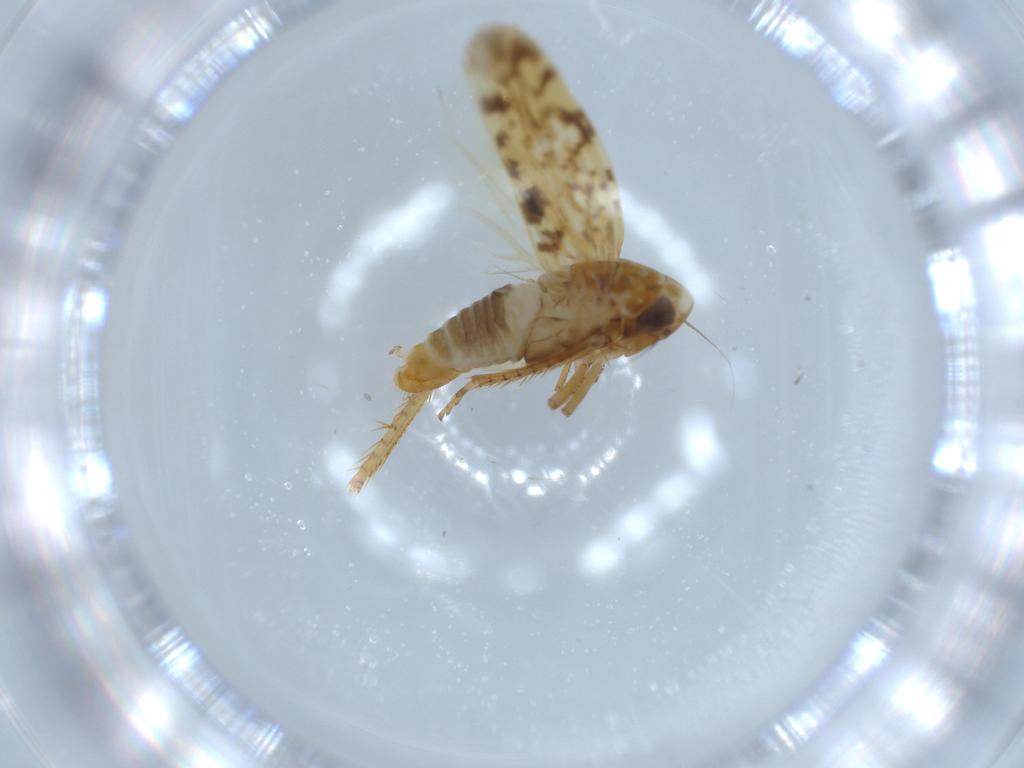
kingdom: Animalia
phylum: Arthropoda
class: Insecta
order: Hemiptera
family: Cicadellidae
